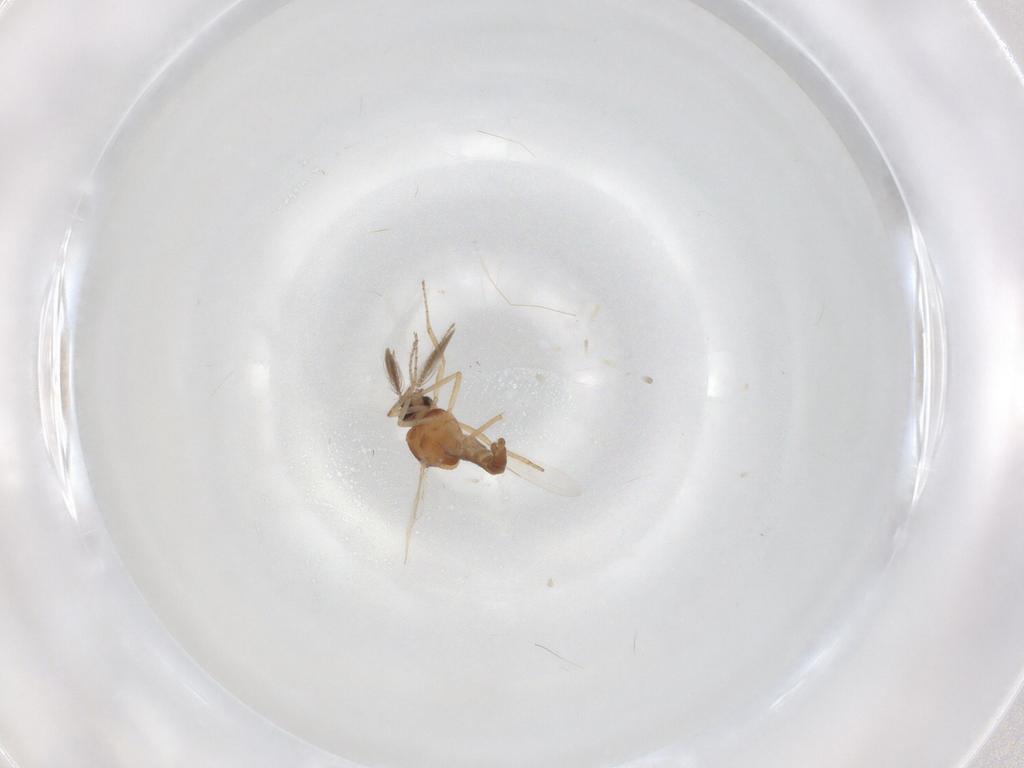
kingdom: Animalia
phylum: Arthropoda
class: Insecta
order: Diptera
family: Ceratopogonidae
